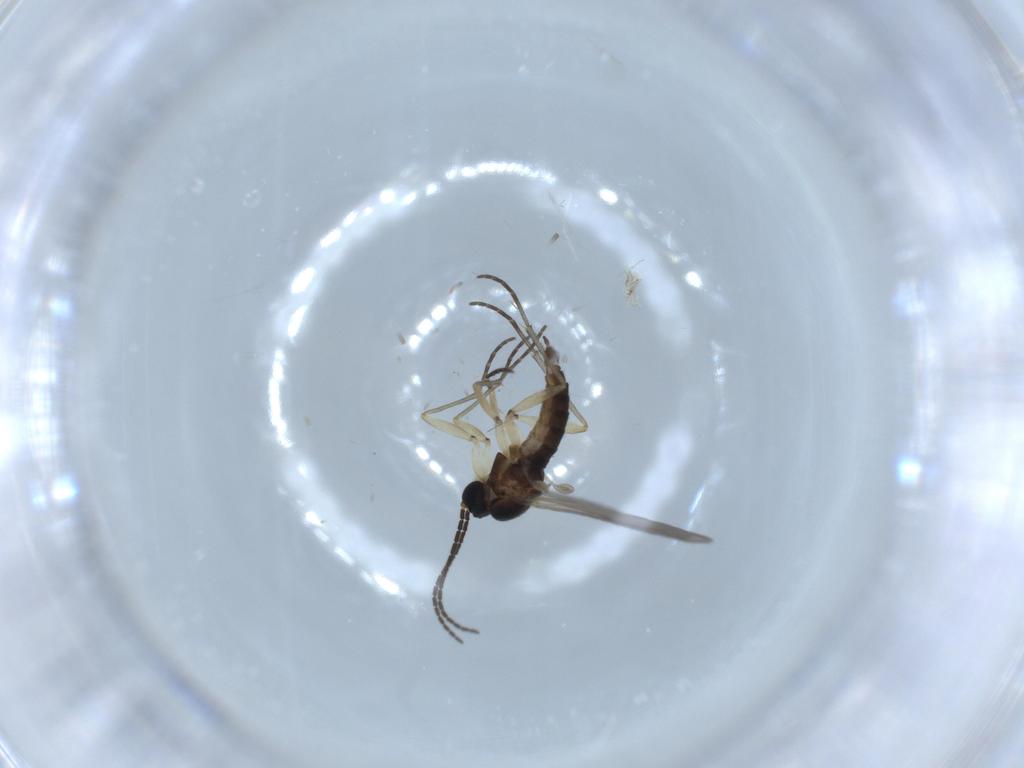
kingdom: Animalia
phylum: Arthropoda
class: Insecta
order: Diptera
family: Sciaridae
